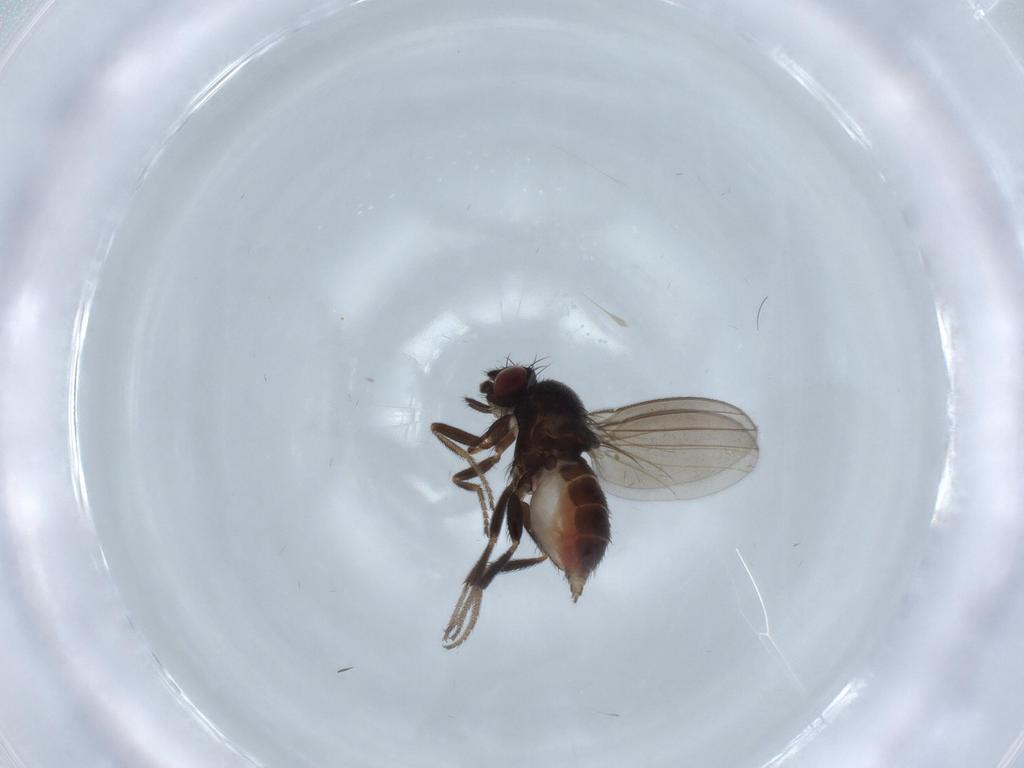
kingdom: Animalia
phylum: Arthropoda
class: Insecta
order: Diptera
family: Milichiidae
